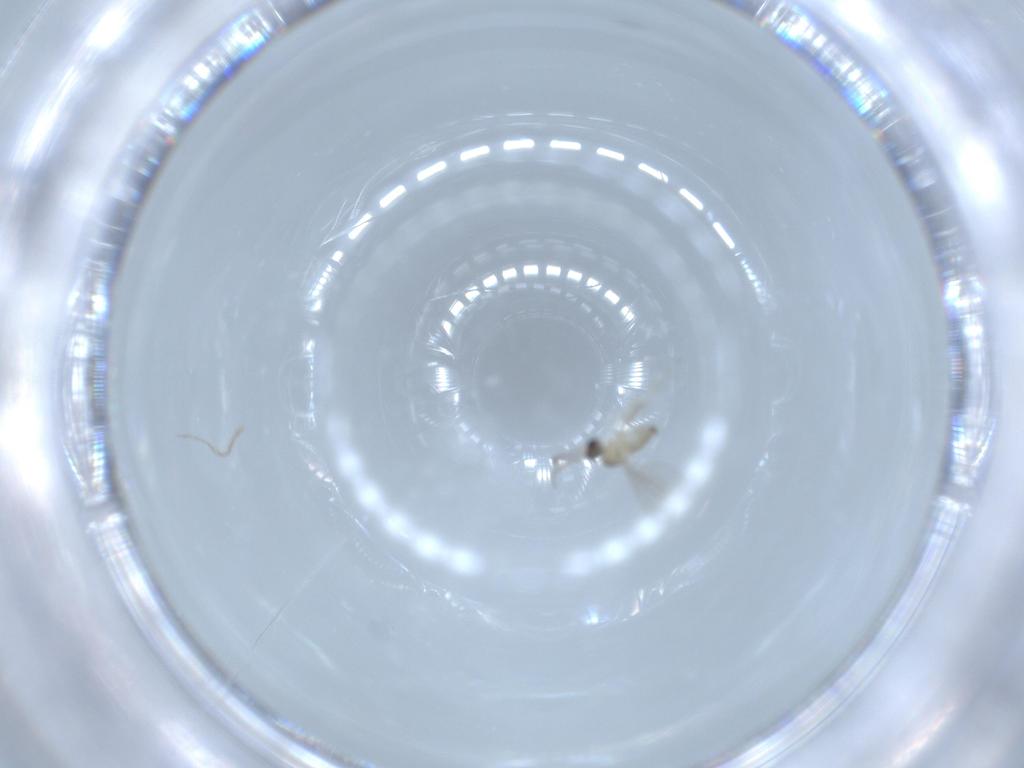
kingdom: Animalia
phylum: Arthropoda
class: Insecta
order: Diptera
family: Cecidomyiidae
